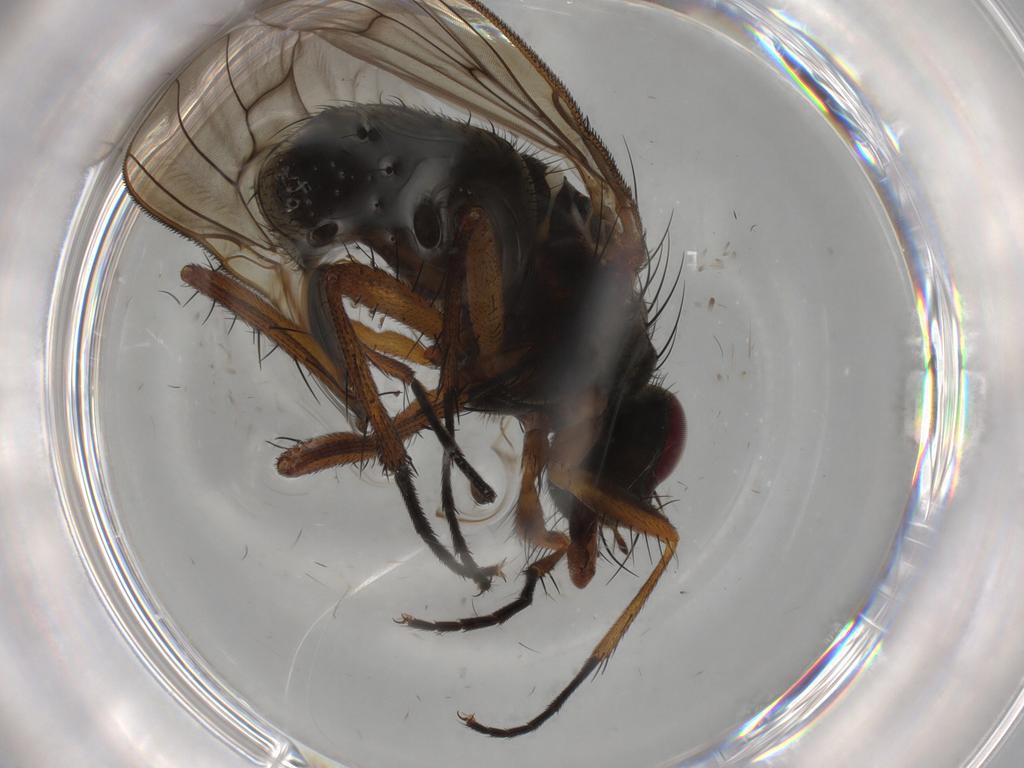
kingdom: Animalia
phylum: Arthropoda
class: Insecta
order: Diptera
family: Anthomyiidae
